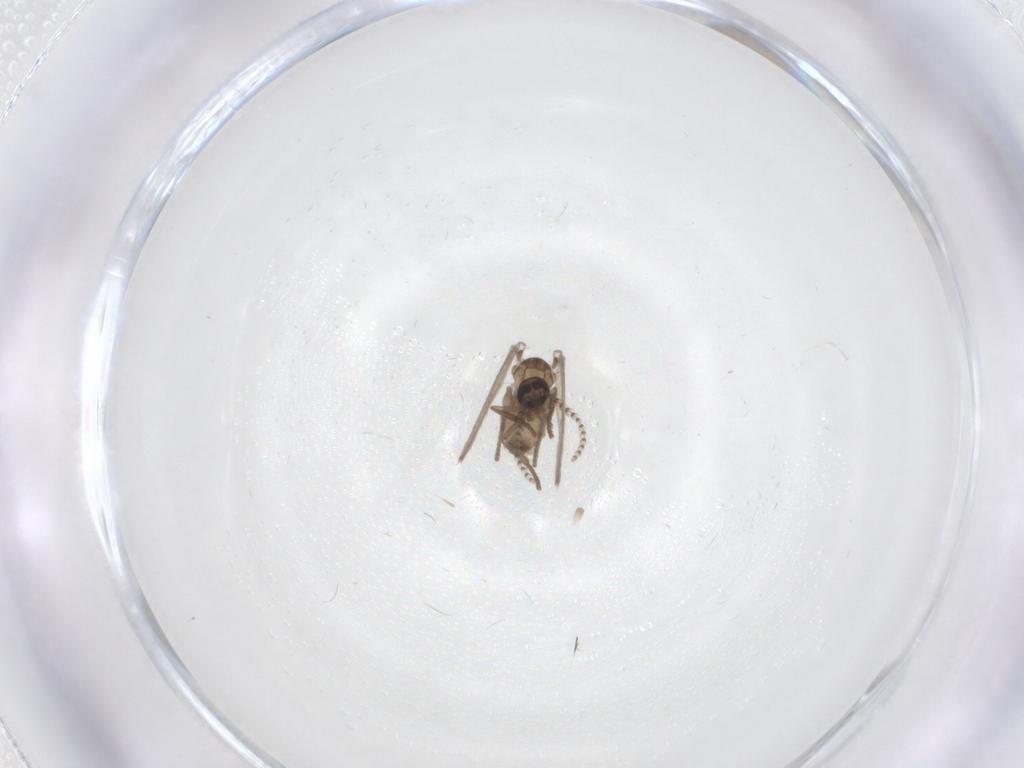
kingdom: Animalia
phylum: Arthropoda
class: Insecta
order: Diptera
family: Psychodidae
